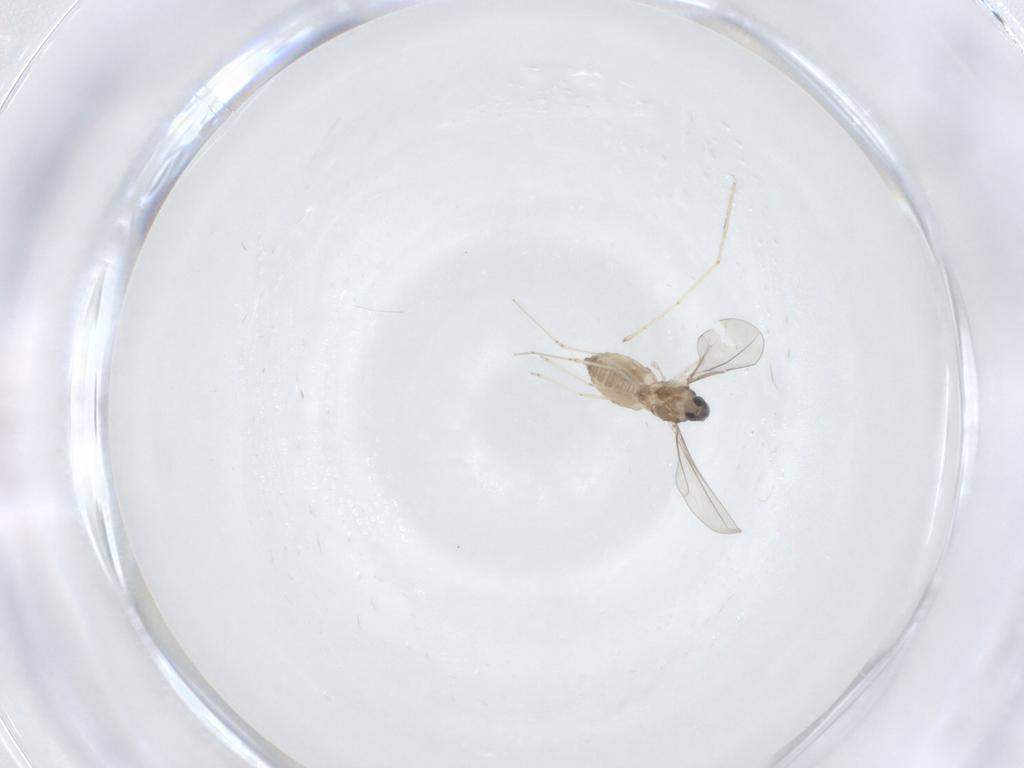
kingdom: Animalia
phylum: Arthropoda
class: Insecta
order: Diptera
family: Cecidomyiidae
